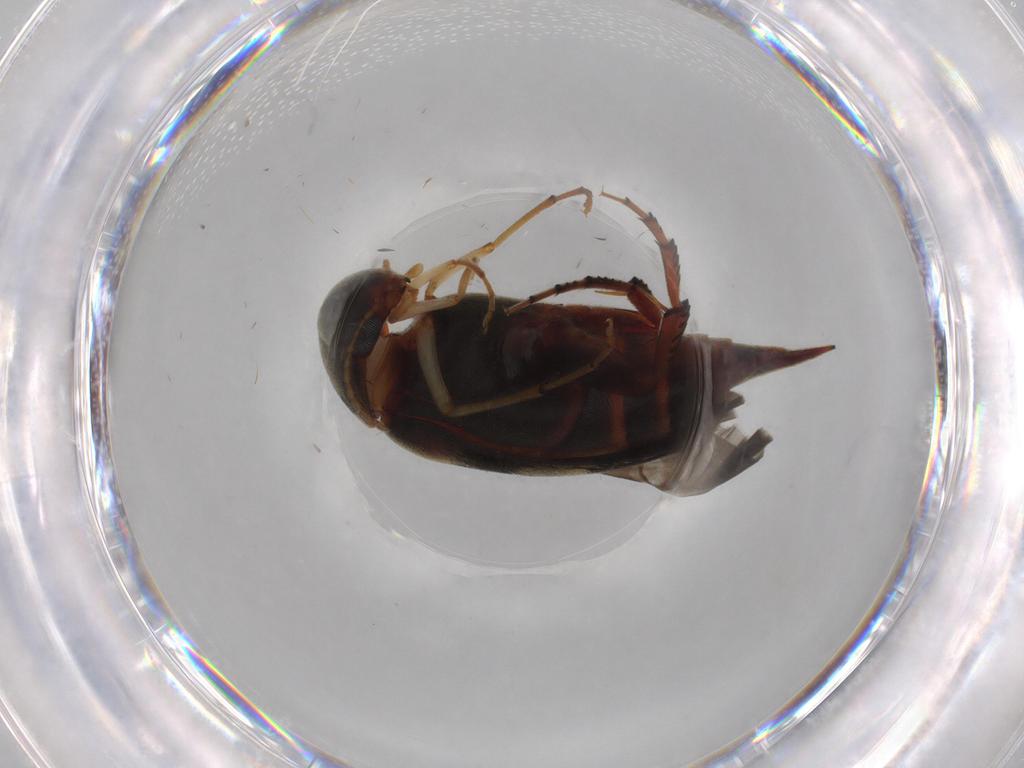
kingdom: Animalia
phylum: Arthropoda
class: Insecta
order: Coleoptera
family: Mordellidae
